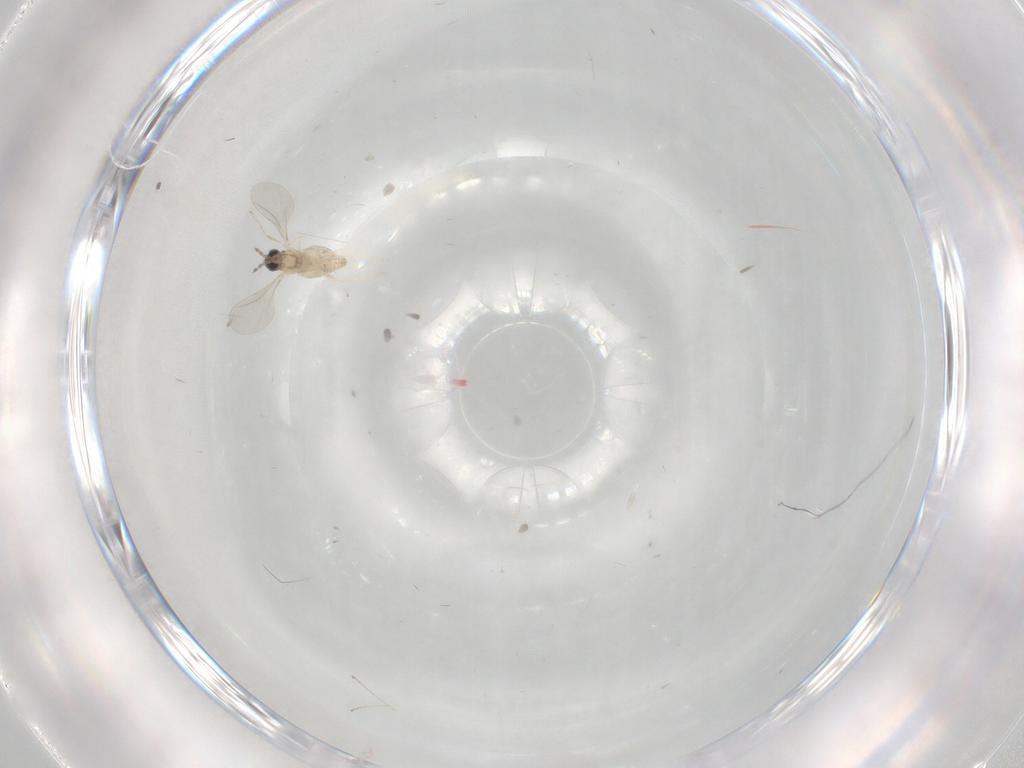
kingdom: Animalia
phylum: Arthropoda
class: Insecta
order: Diptera
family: Cecidomyiidae
